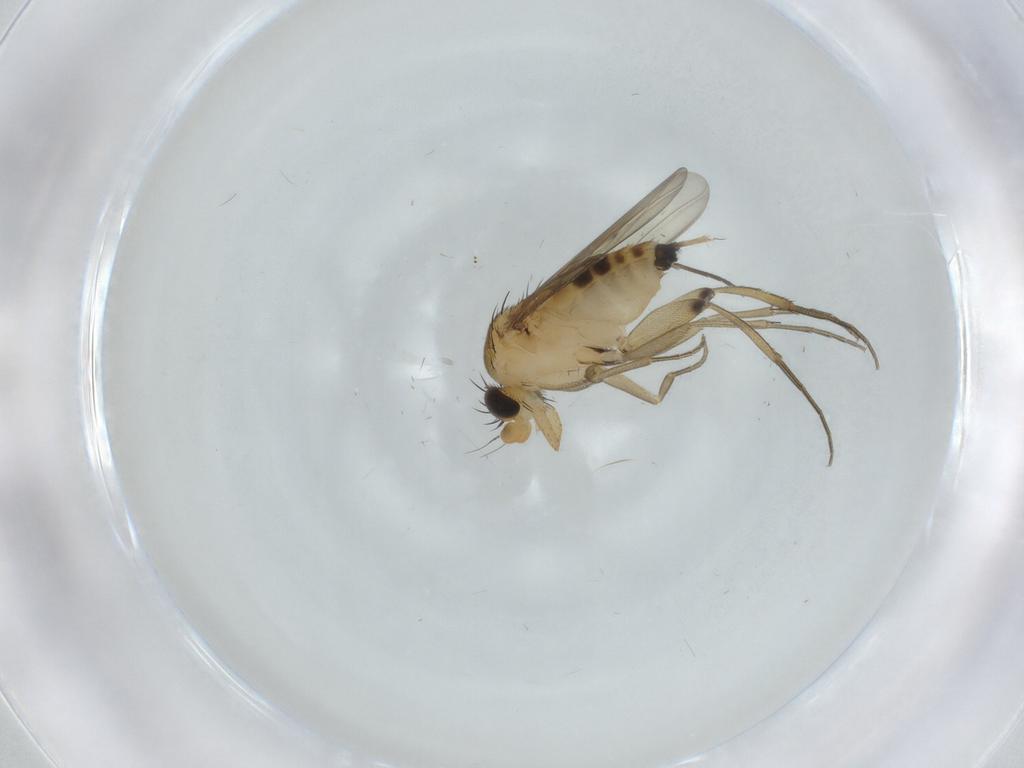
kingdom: Animalia
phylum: Arthropoda
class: Insecta
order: Diptera
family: Phoridae
